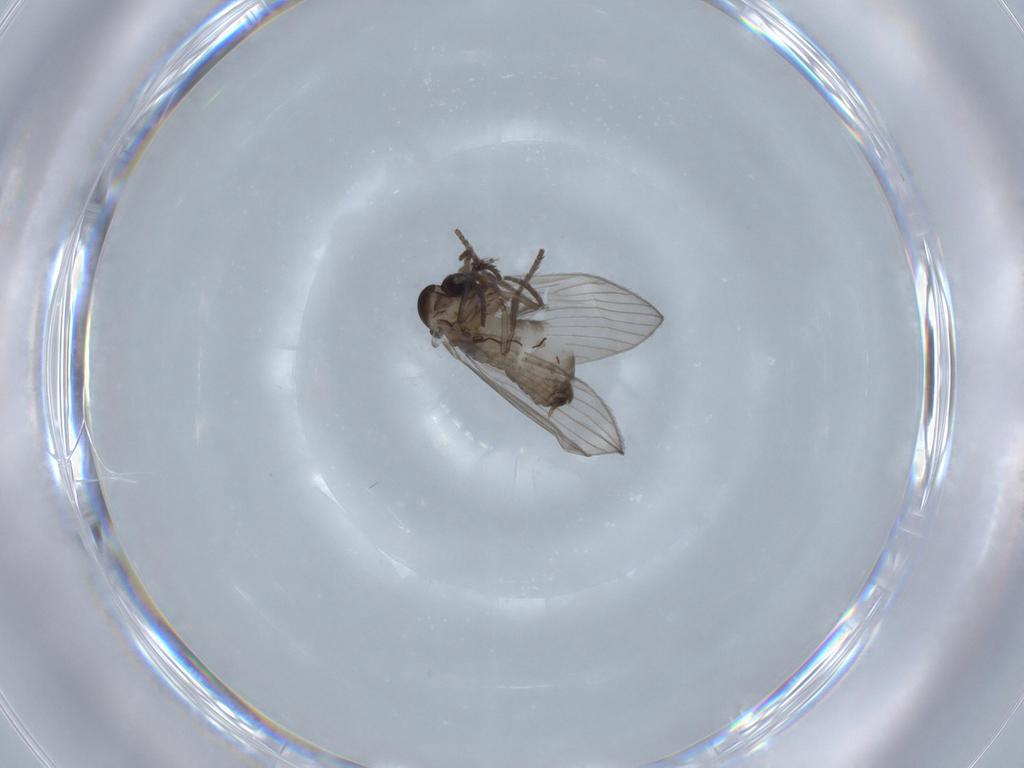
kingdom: Animalia
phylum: Arthropoda
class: Insecta
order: Diptera
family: Psychodidae
